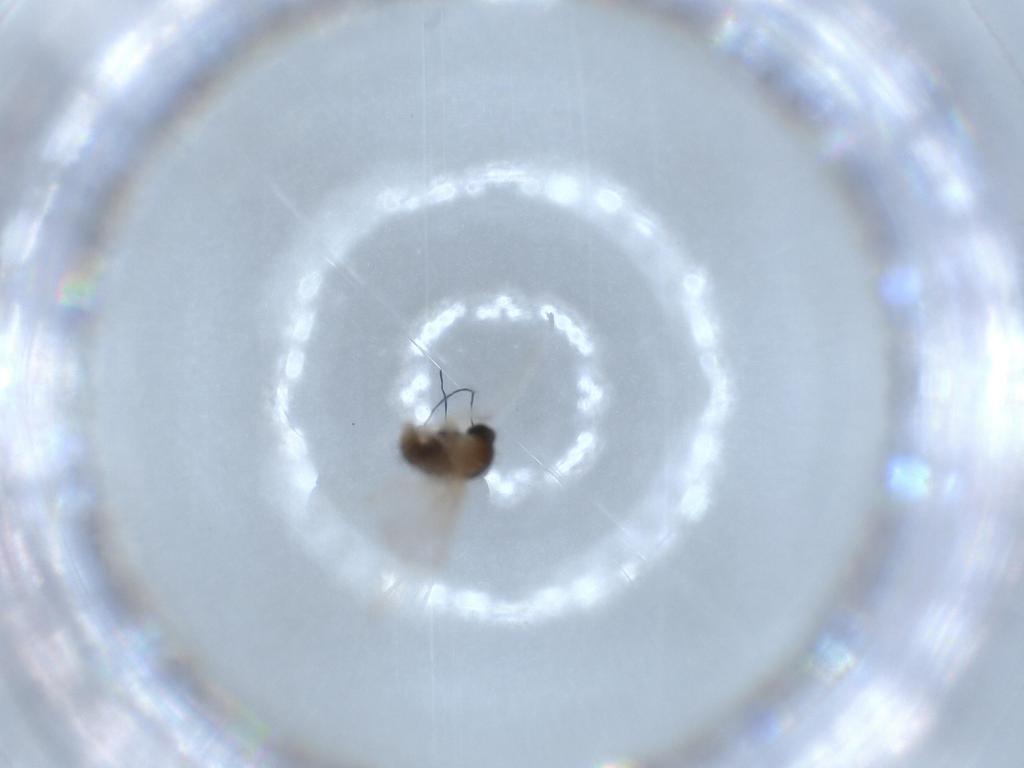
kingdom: Animalia
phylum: Arthropoda
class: Insecta
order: Diptera
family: Cecidomyiidae
